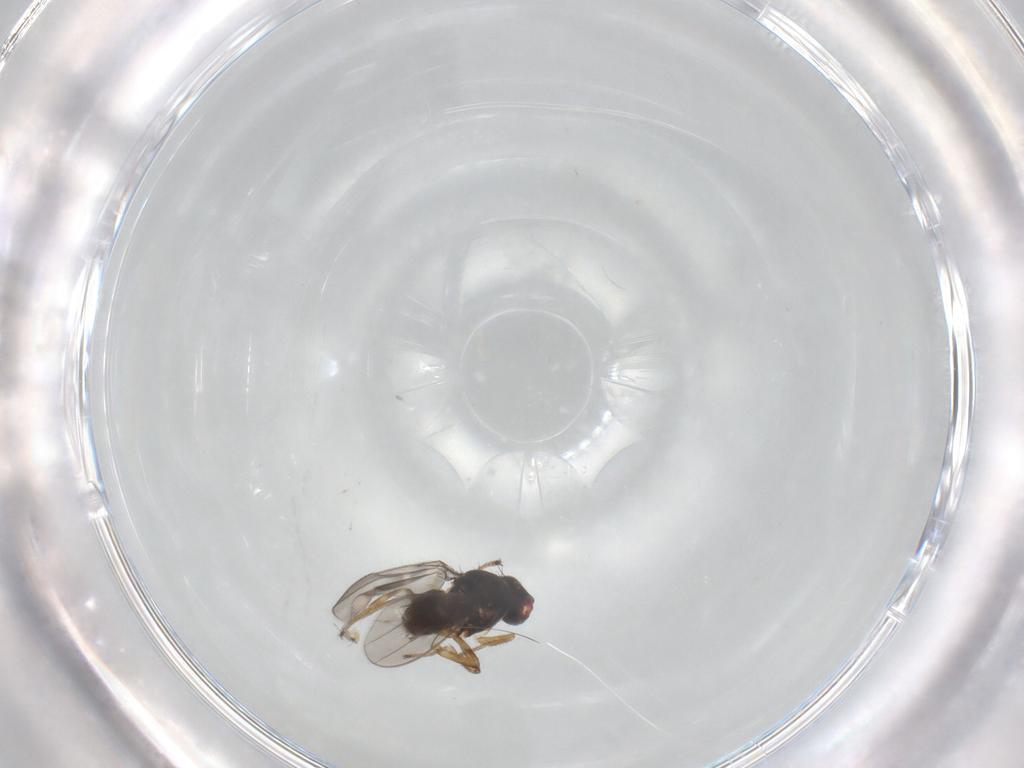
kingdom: Animalia
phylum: Arthropoda
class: Insecta
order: Diptera
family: Ephydridae
